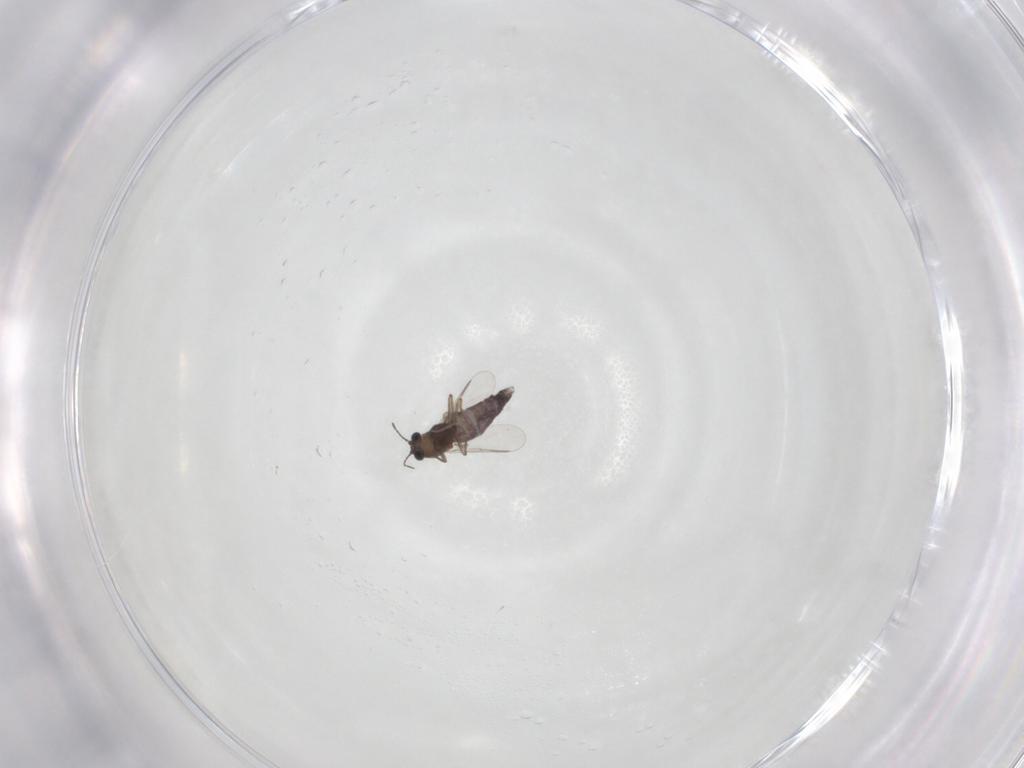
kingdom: Animalia
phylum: Arthropoda
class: Insecta
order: Diptera
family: Chironomidae
